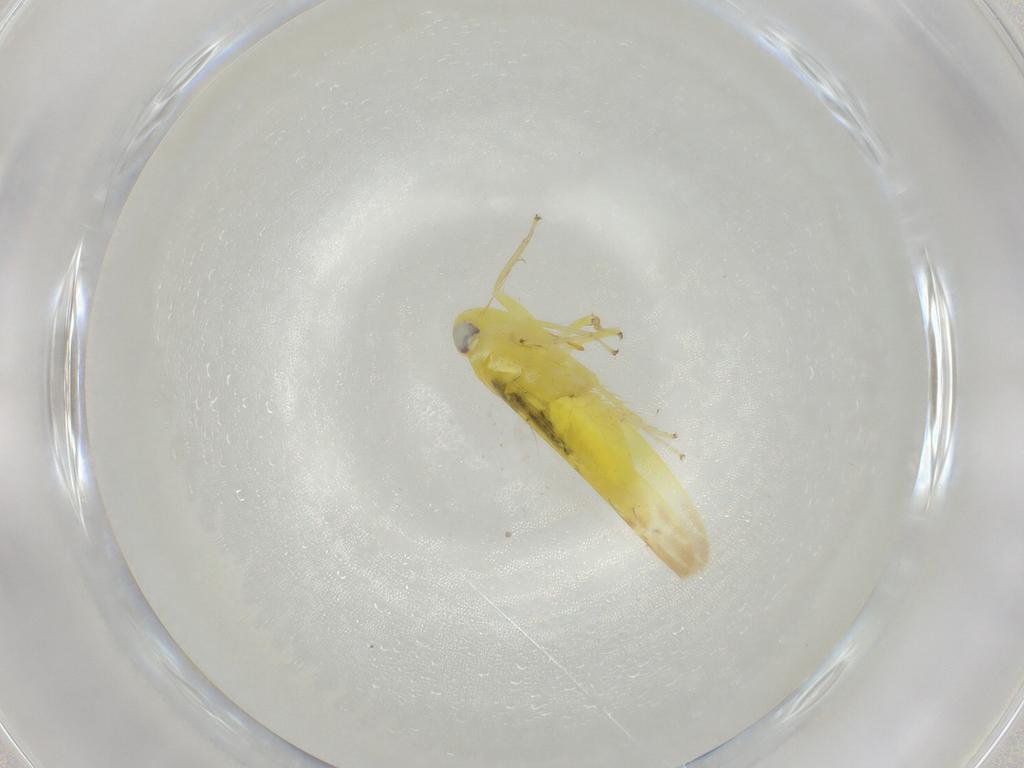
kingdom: Animalia
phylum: Arthropoda
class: Insecta
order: Hemiptera
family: Cicadellidae
